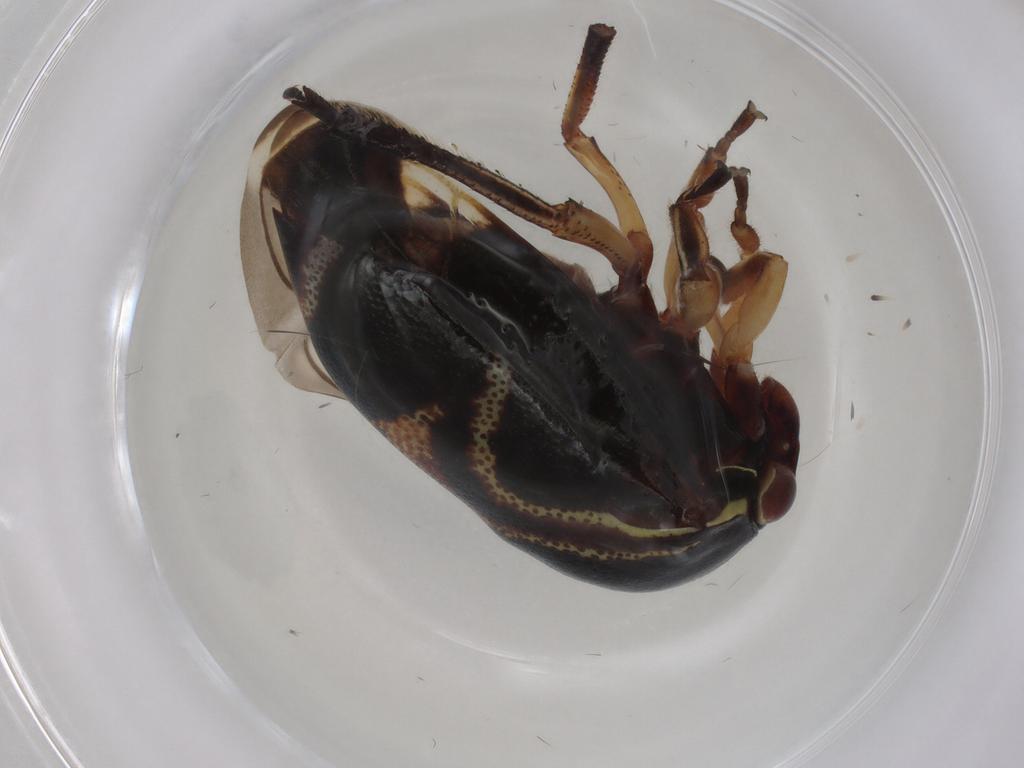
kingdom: Animalia
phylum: Arthropoda
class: Insecta
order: Hemiptera
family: Membracidae
